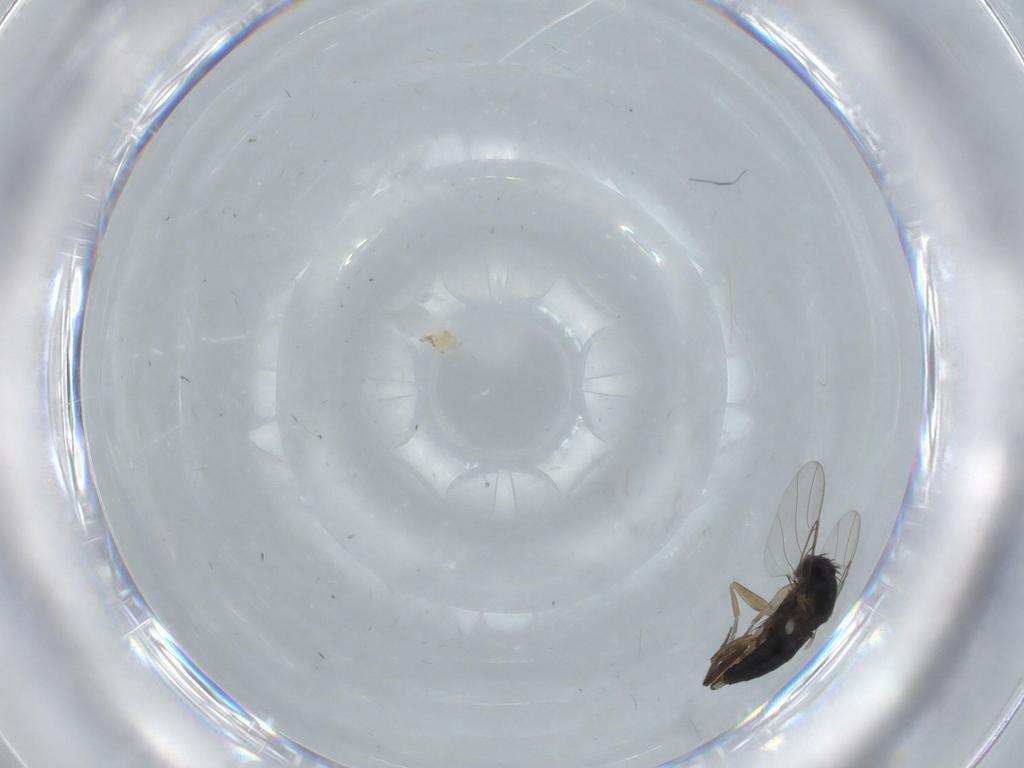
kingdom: Animalia
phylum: Arthropoda
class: Insecta
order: Diptera
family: Phoridae
